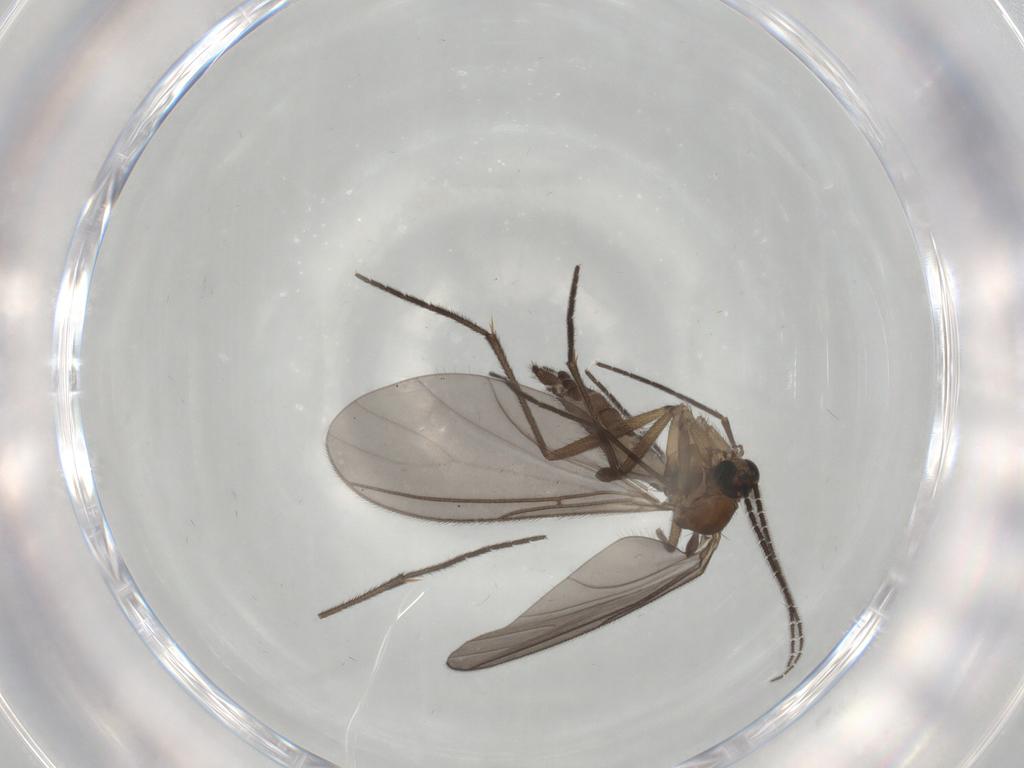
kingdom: Animalia
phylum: Arthropoda
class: Insecta
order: Diptera
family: Sciaridae
